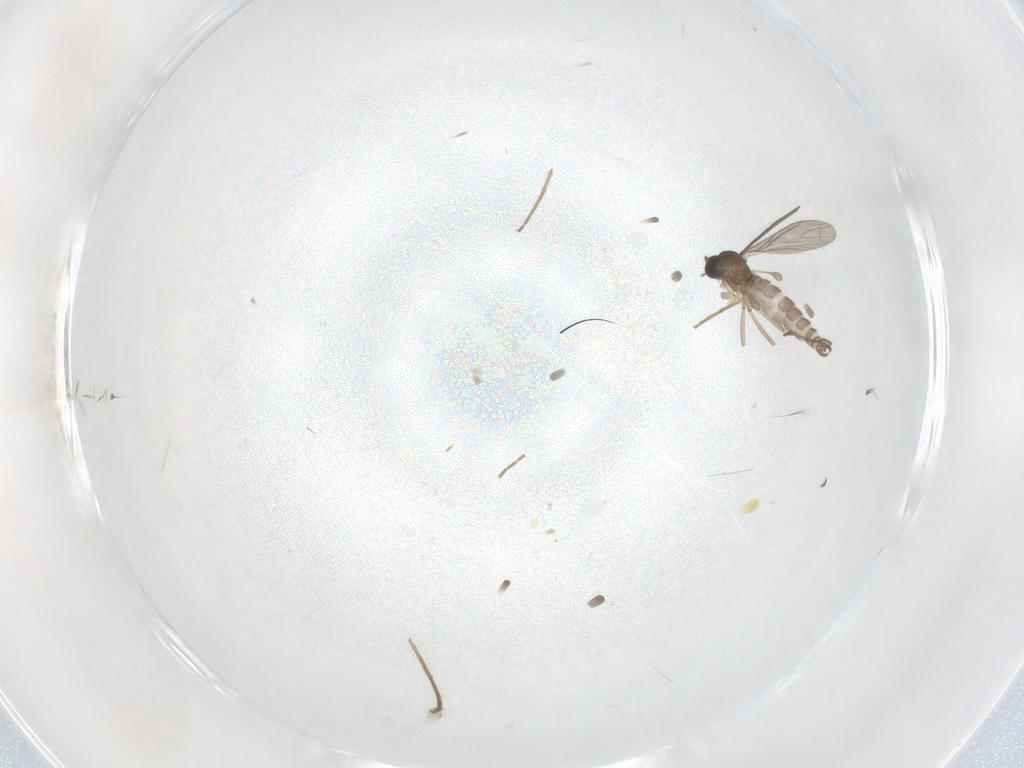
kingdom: Animalia
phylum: Arthropoda
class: Insecta
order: Diptera
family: Sciaridae
